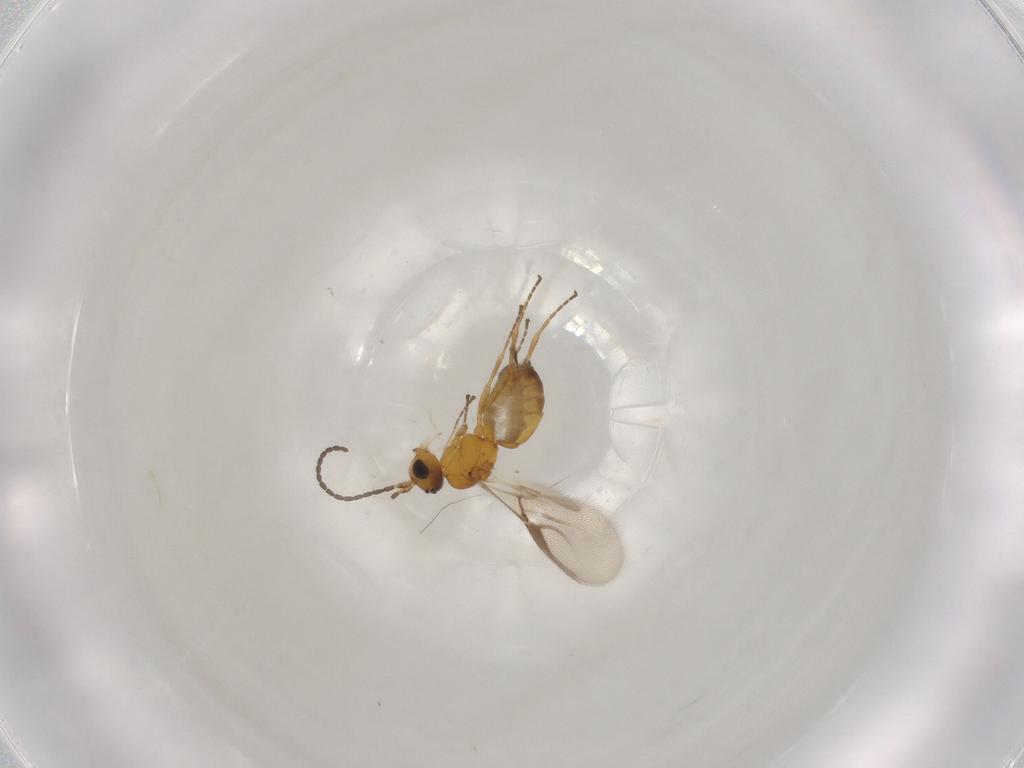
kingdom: Animalia
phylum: Arthropoda
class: Insecta
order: Hymenoptera
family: Braconidae
